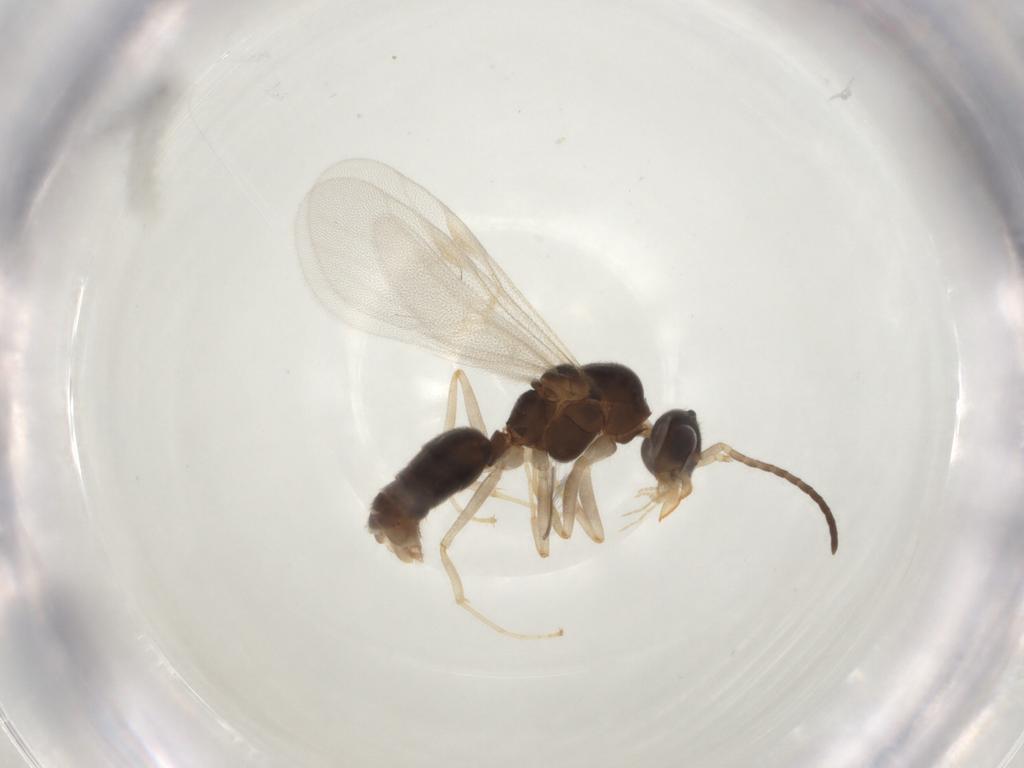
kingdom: Animalia
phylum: Arthropoda
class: Insecta
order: Hymenoptera
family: Formicidae
